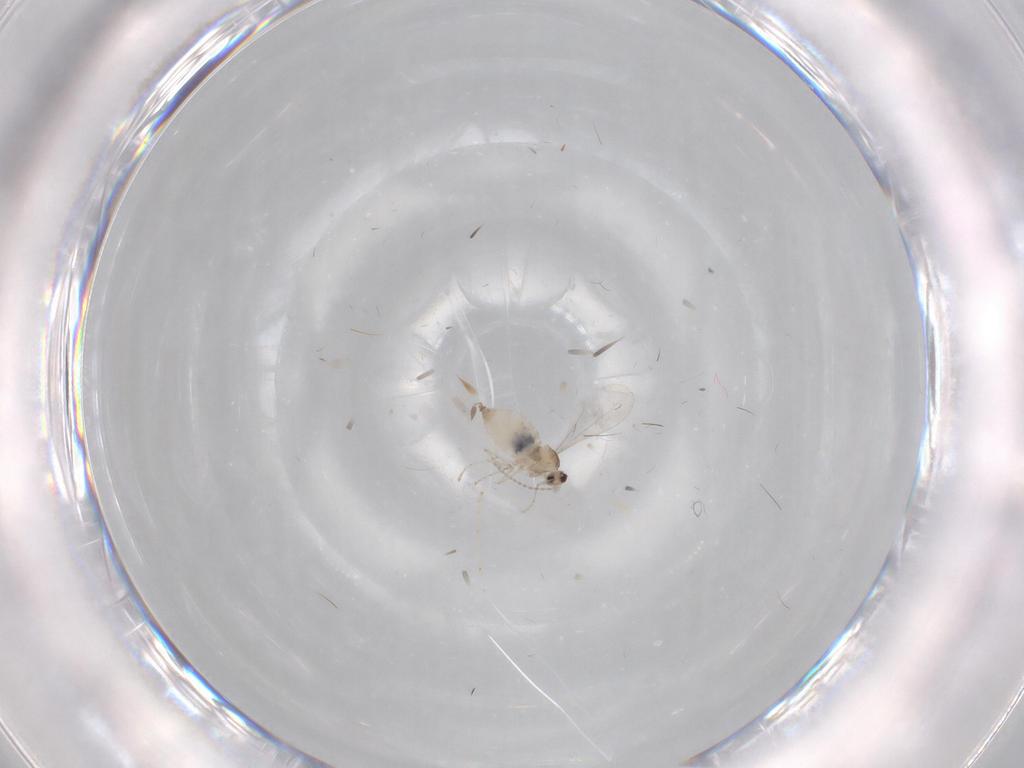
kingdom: Animalia
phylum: Arthropoda
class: Insecta
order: Diptera
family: Cecidomyiidae
